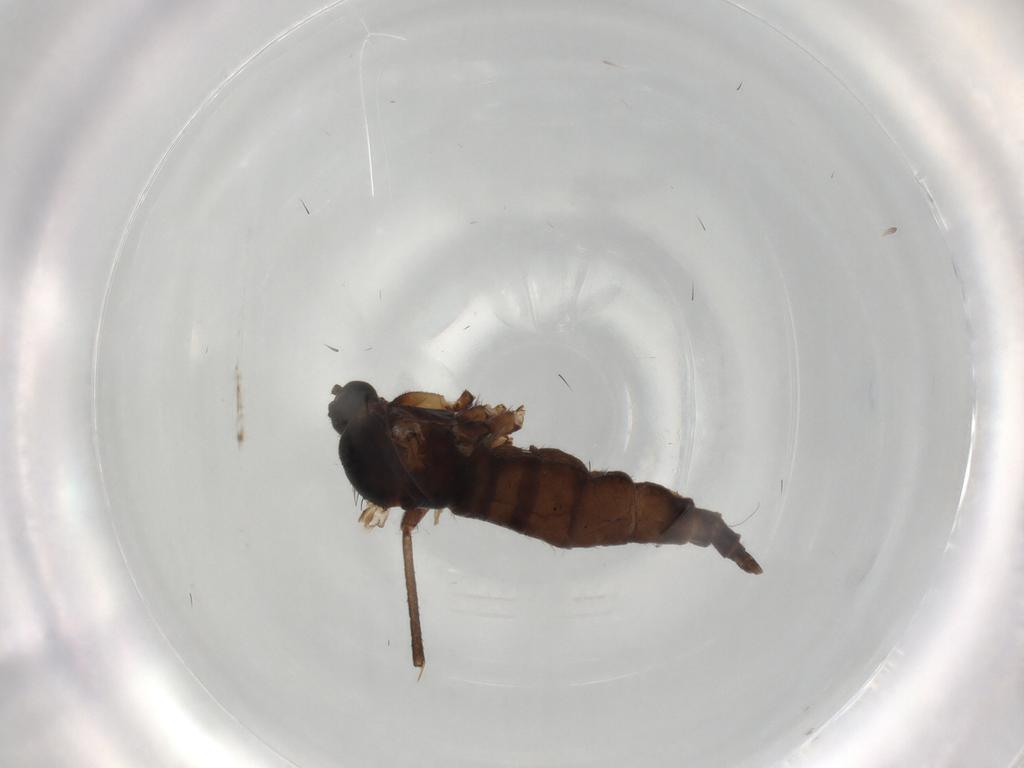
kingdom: Animalia
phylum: Arthropoda
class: Insecta
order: Diptera
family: Sciaridae
